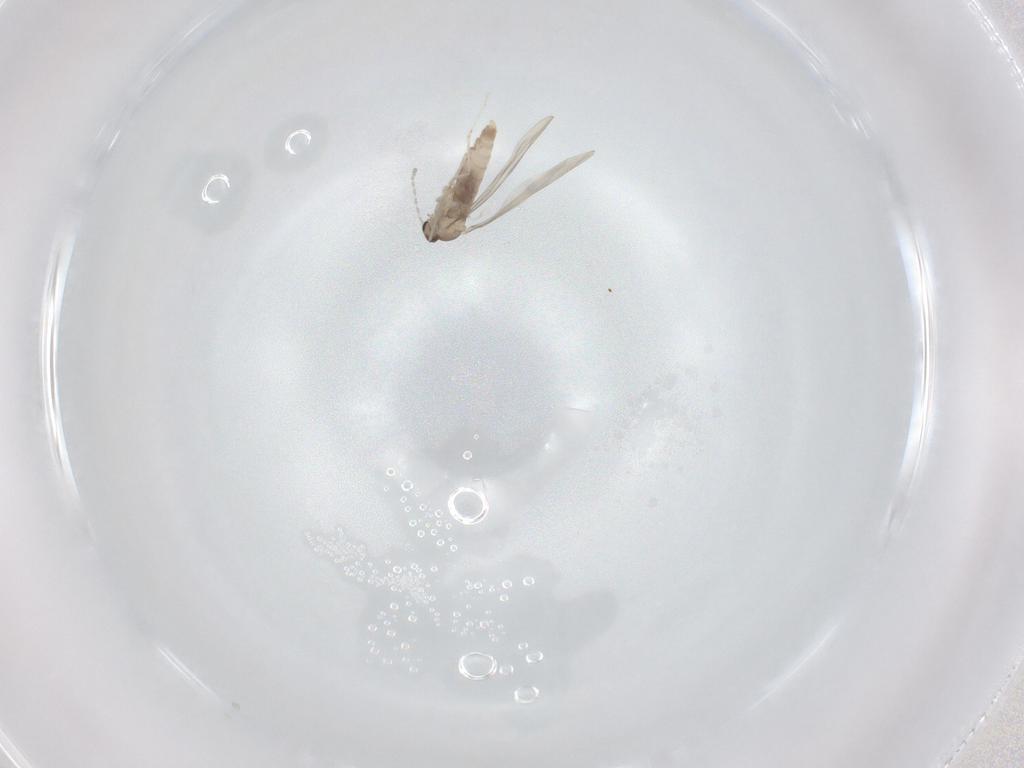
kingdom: Animalia
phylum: Arthropoda
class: Insecta
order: Diptera
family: Cecidomyiidae
